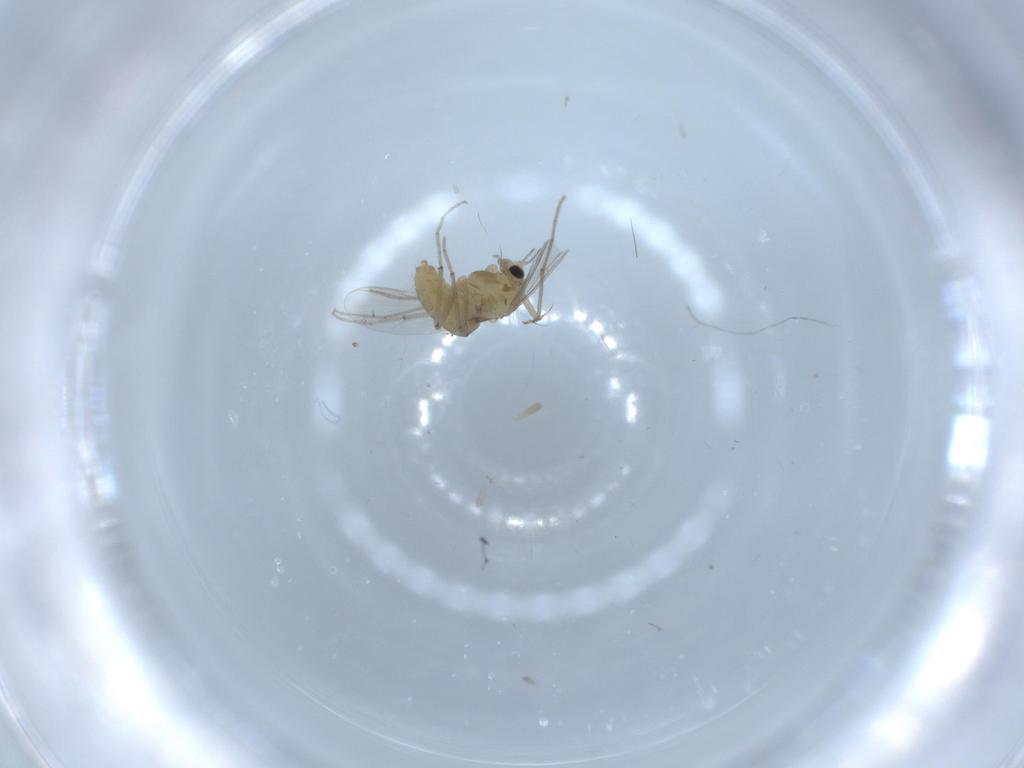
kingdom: Animalia
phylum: Arthropoda
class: Insecta
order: Diptera
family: Chironomidae
